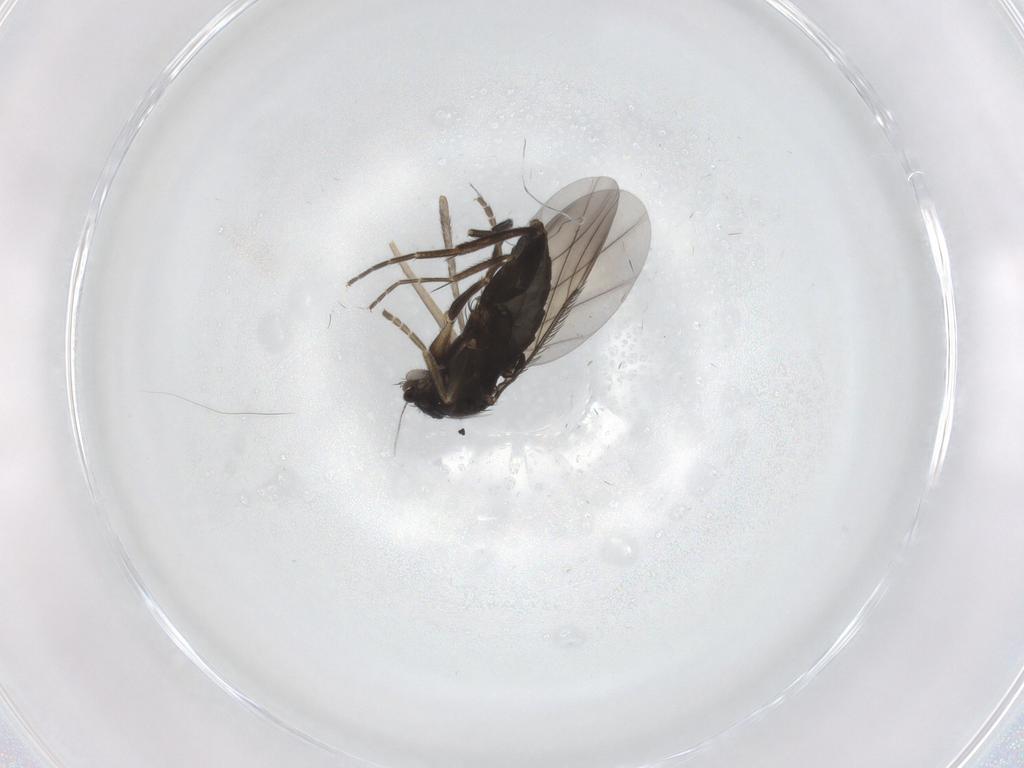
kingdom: Animalia
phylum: Arthropoda
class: Insecta
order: Diptera
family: Phoridae
